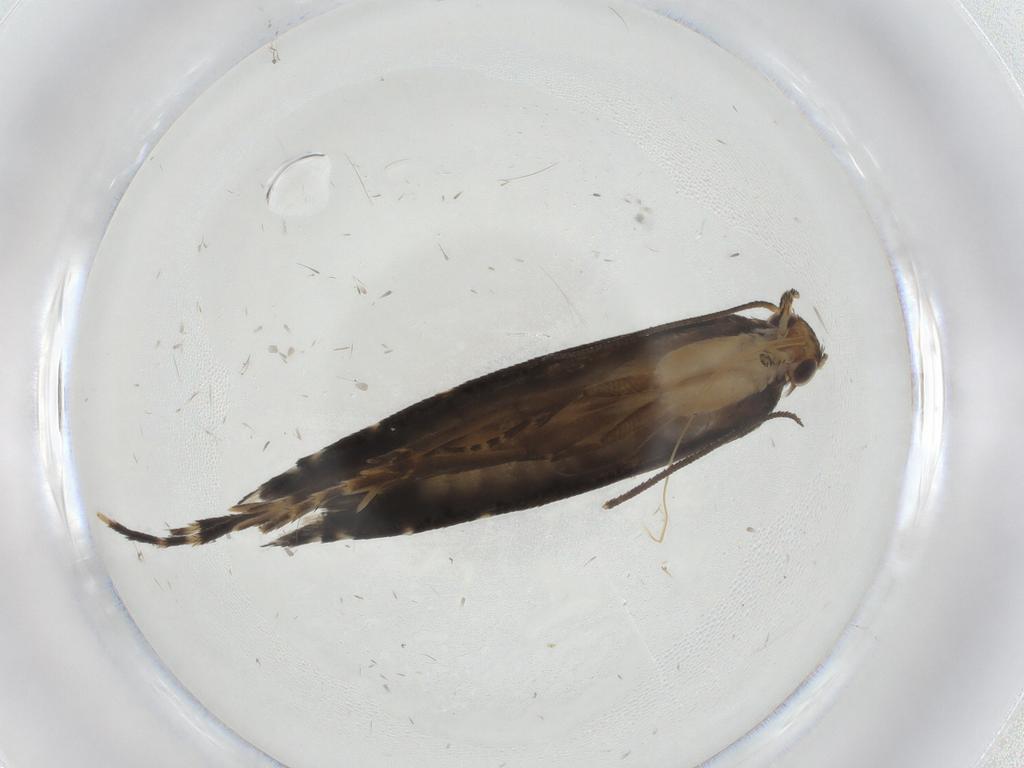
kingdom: Animalia
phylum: Arthropoda
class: Insecta
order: Lepidoptera
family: Glyphipterigidae
